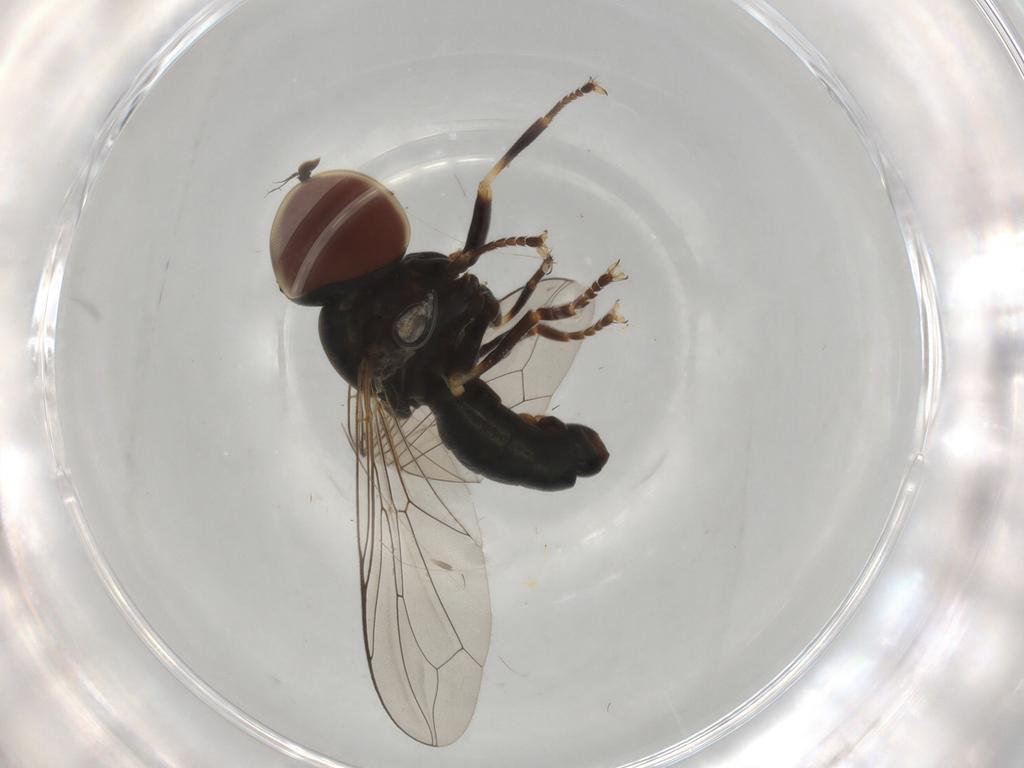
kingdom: Animalia
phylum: Arthropoda
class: Insecta
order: Diptera
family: Pipunculidae
